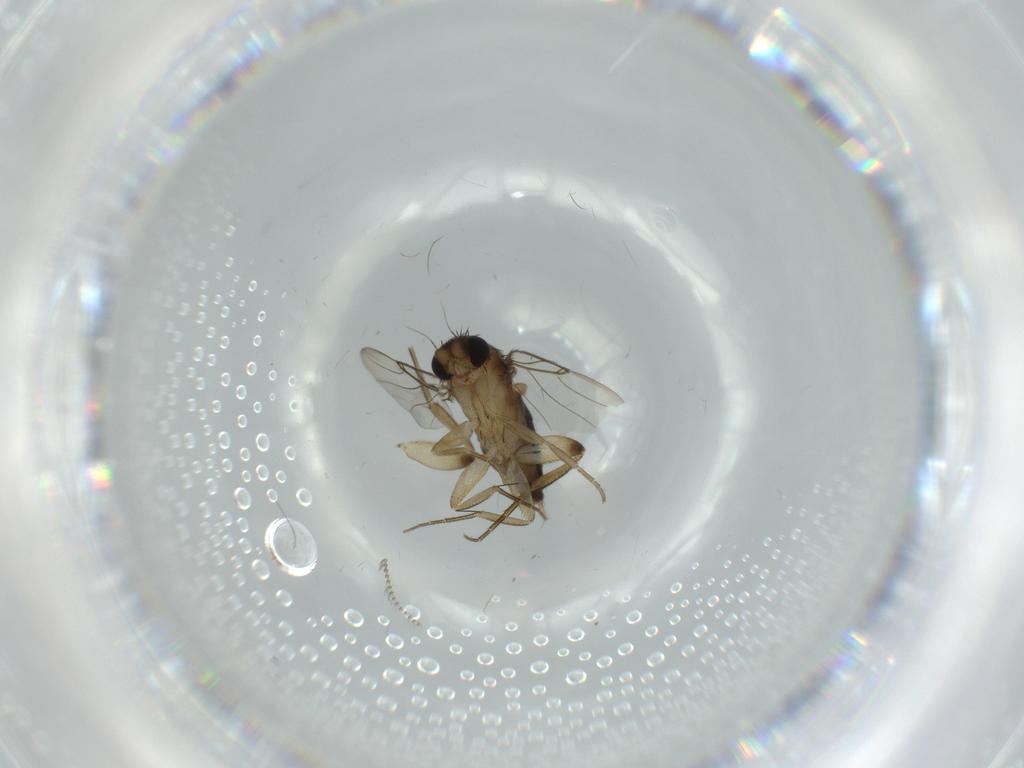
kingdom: Animalia
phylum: Arthropoda
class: Insecta
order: Diptera
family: Phoridae
